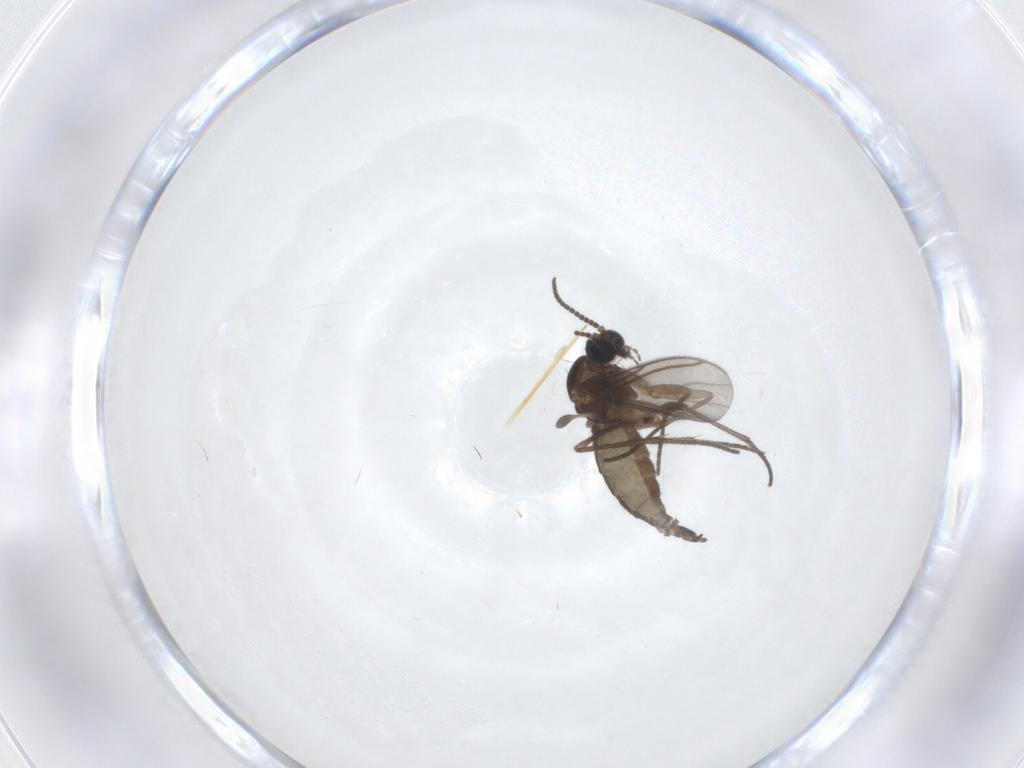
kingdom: Animalia
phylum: Arthropoda
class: Insecta
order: Diptera
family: Sciaridae
